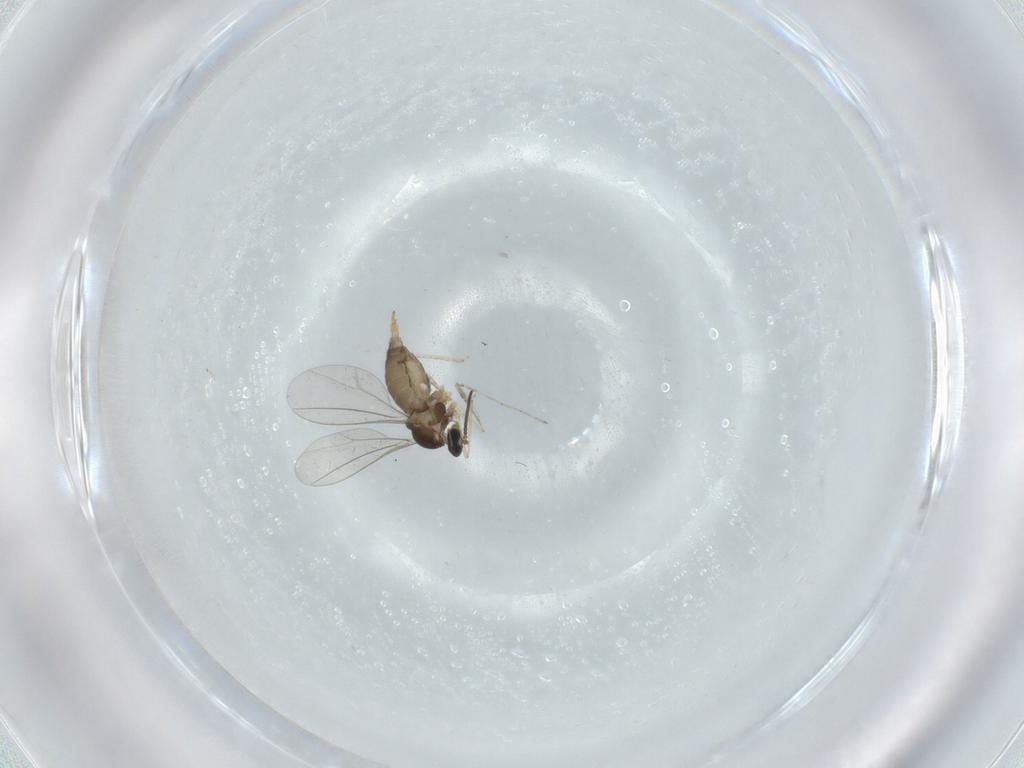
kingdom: Animalia
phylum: Arthropoda
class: Insecta
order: Diptera
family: Cecidomyiidae
